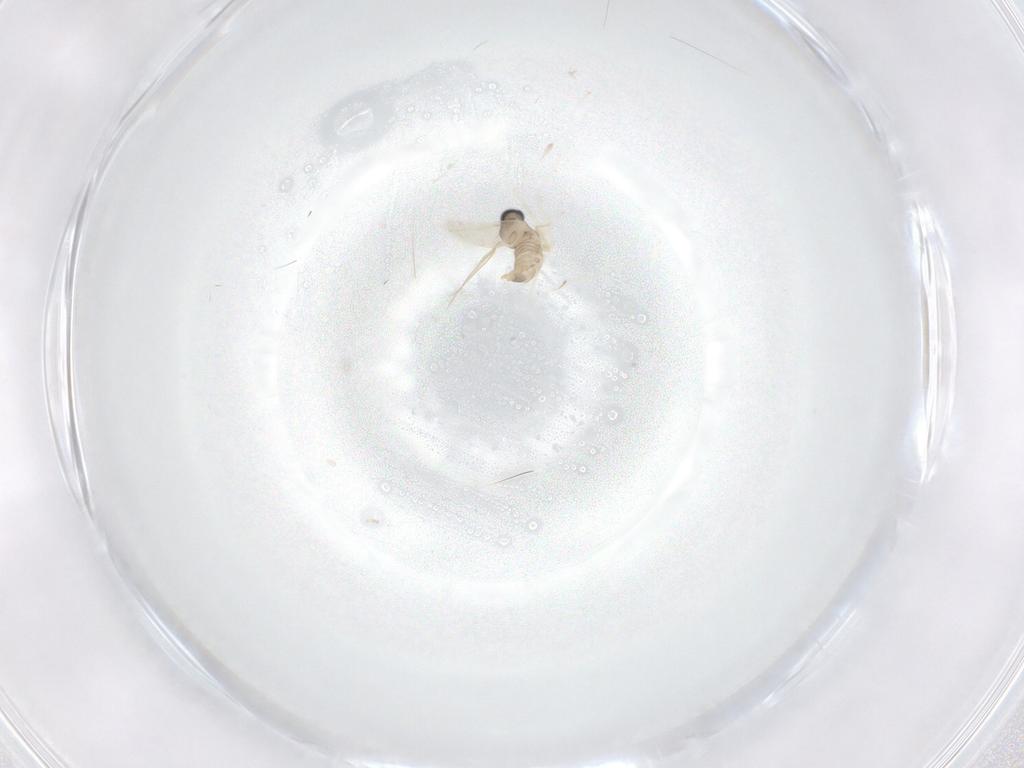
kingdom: Animalia
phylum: Arthropoda
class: Insecta
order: Diptera
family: Cecidomyiidae
